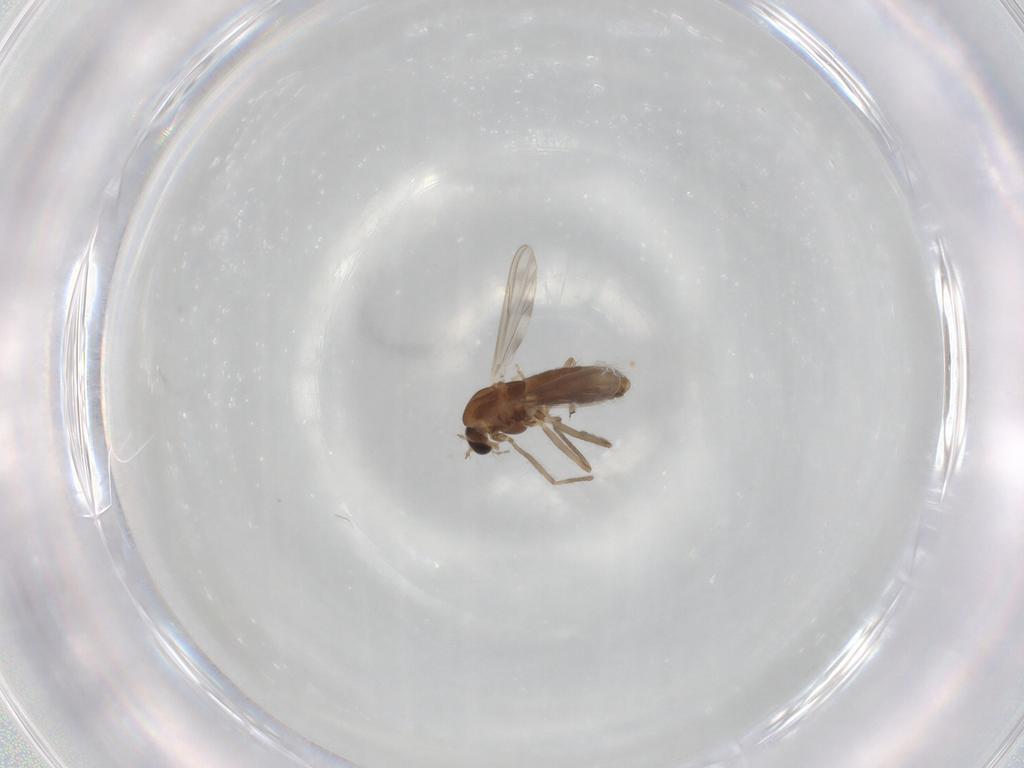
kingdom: Animalia
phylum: Arthropoda
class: Insecta
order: Diptera
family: Chironomidae
